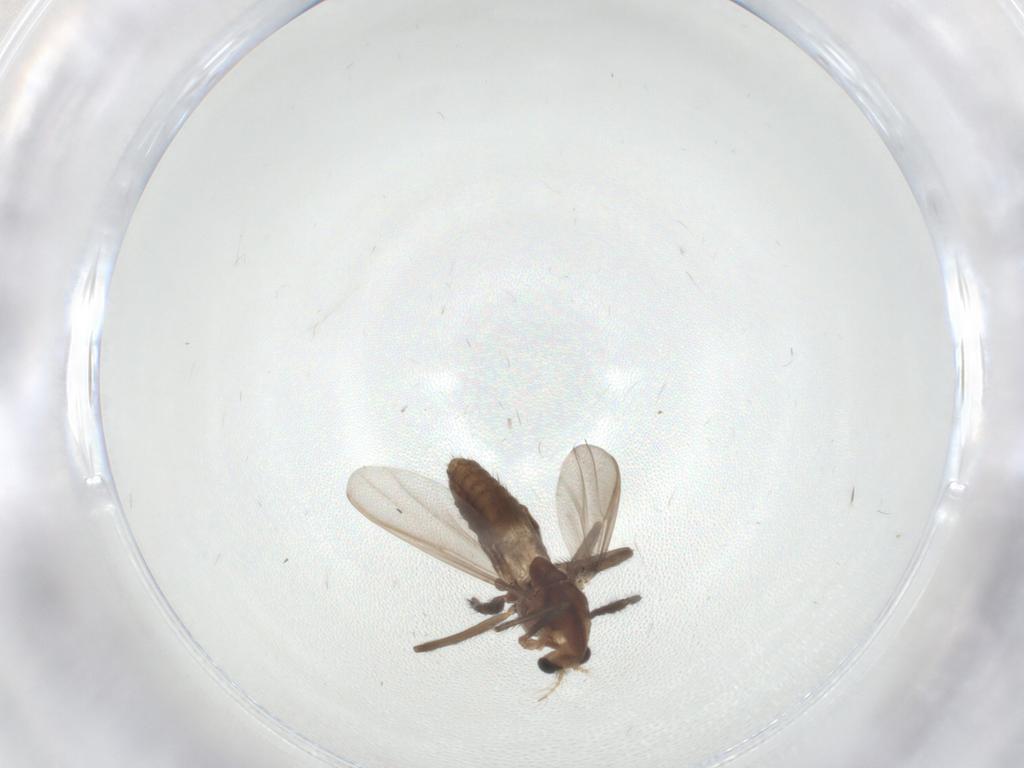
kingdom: Animalia
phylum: Arthropoda
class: Insecta
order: Diptera
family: Chironomidae
